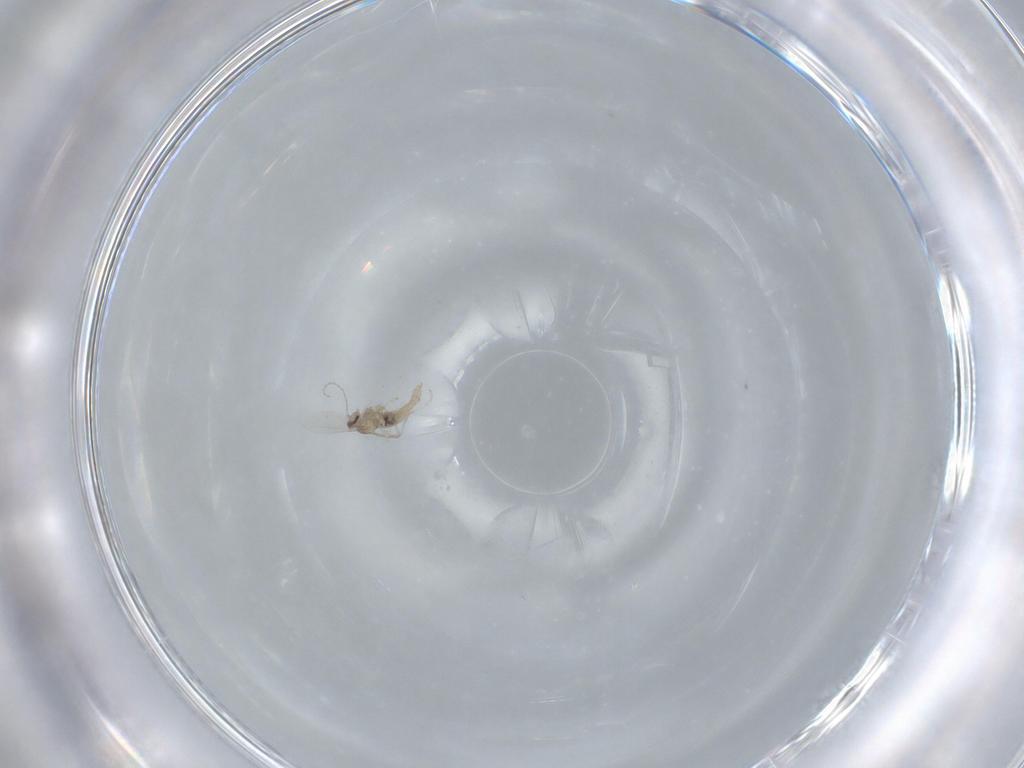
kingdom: Animalia
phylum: Arthropoda
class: Insecta
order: Diptera
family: Cecidomyiidae
